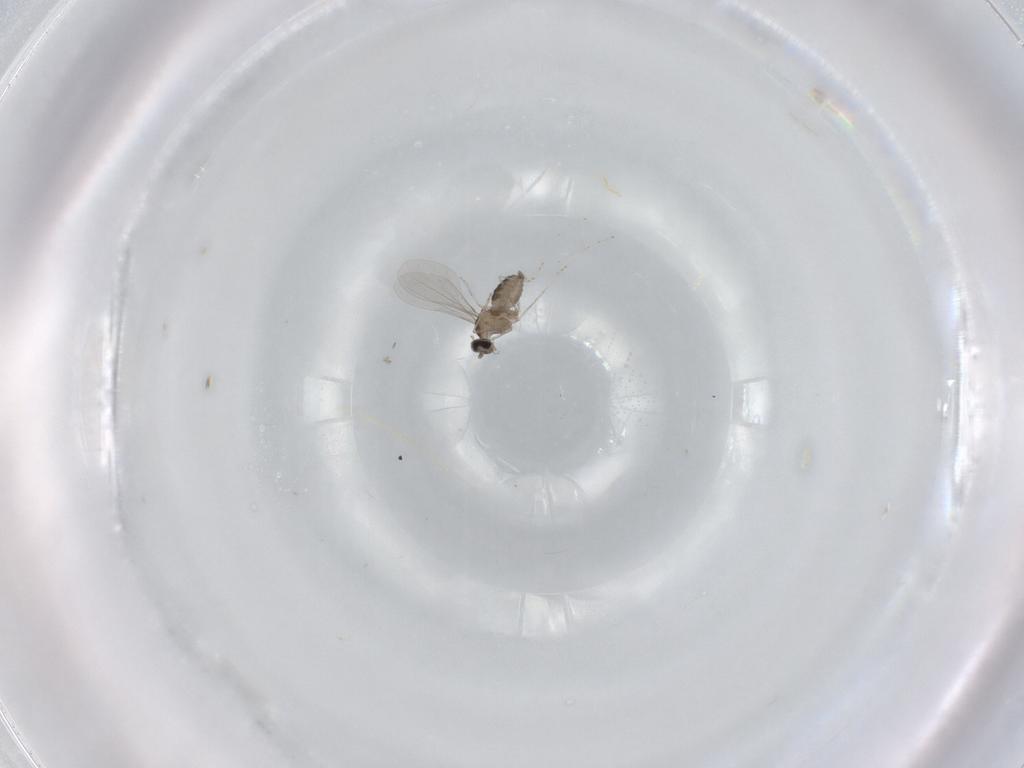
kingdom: Animalia
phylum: Arthropoda
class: Insecta
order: Diptera
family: Cecidomyiidae
